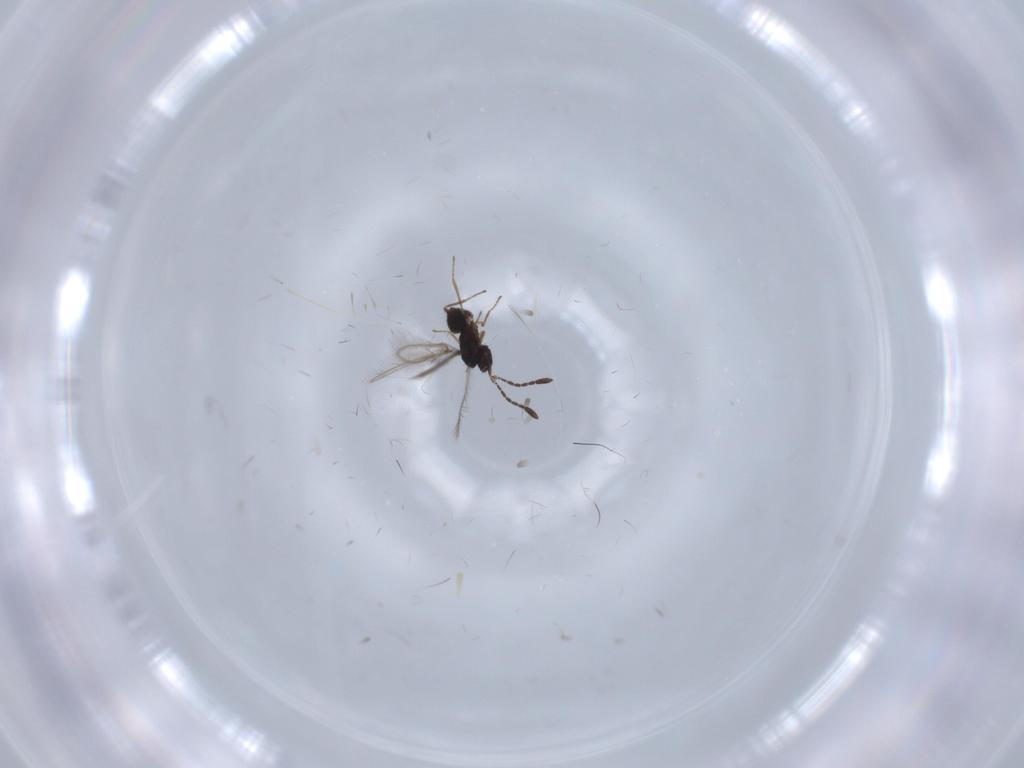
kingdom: Animalia
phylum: Arthropoda
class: Insecta
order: Hymenoptera
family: Mymaridae
